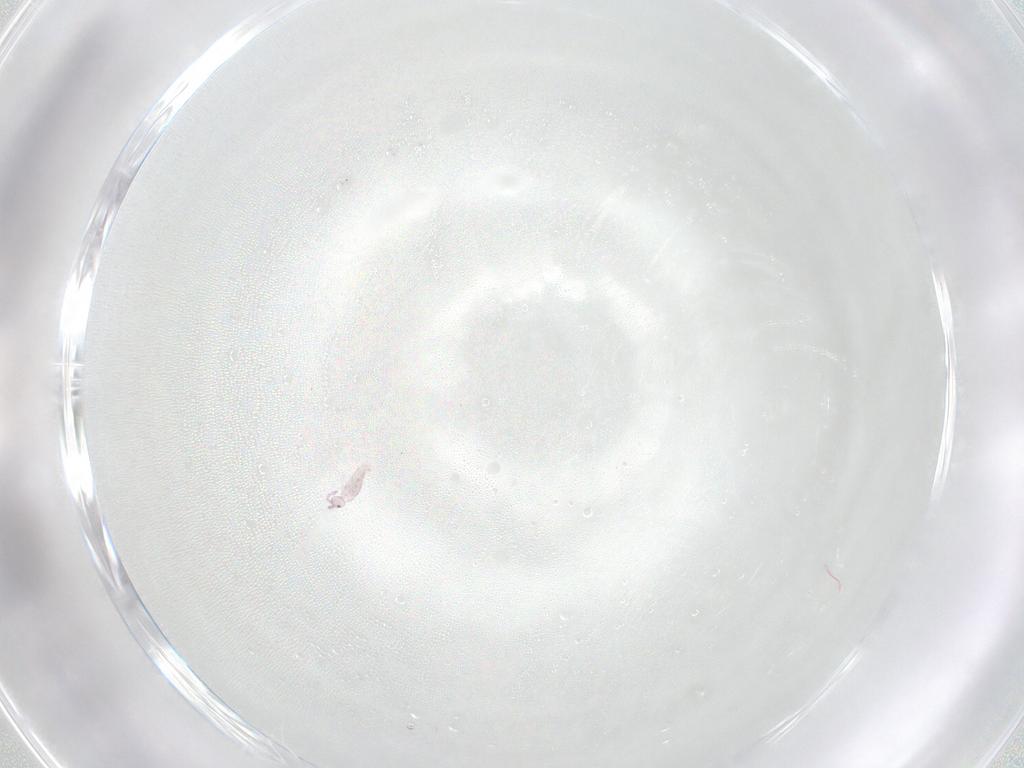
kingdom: Animalia
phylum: Arthropoda
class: Collembola
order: Entomobryomorpha
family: Entomobryidae
